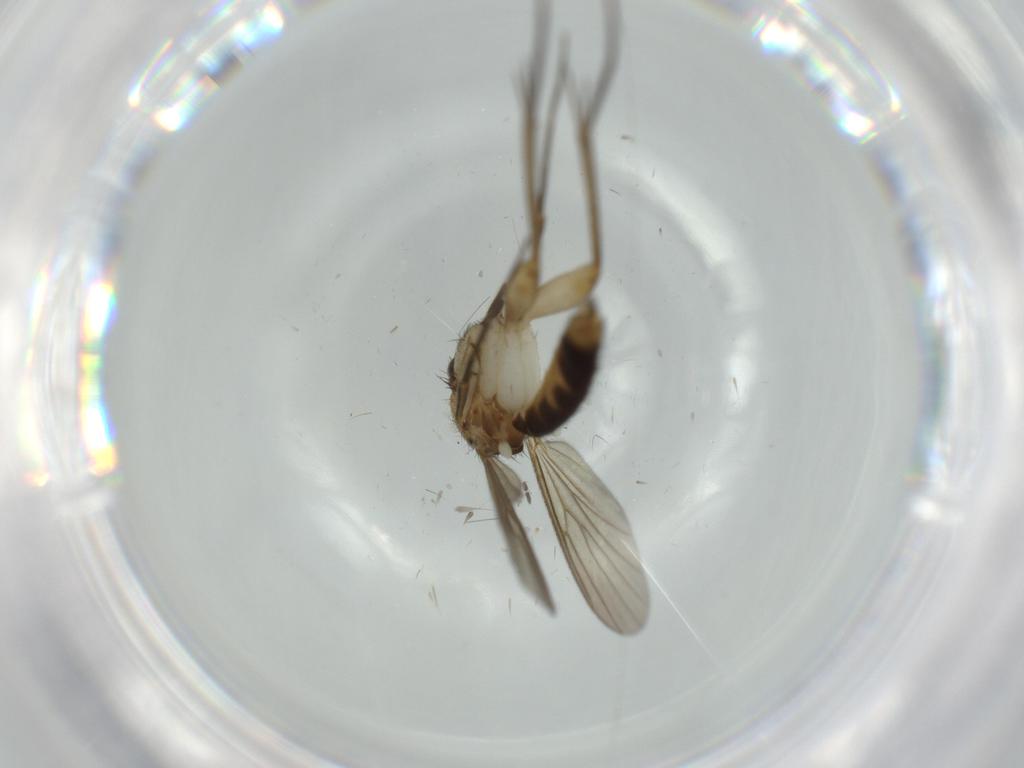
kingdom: Animalia
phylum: Arthropoda
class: Insecta
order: Diptera
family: Mycetophilidae
